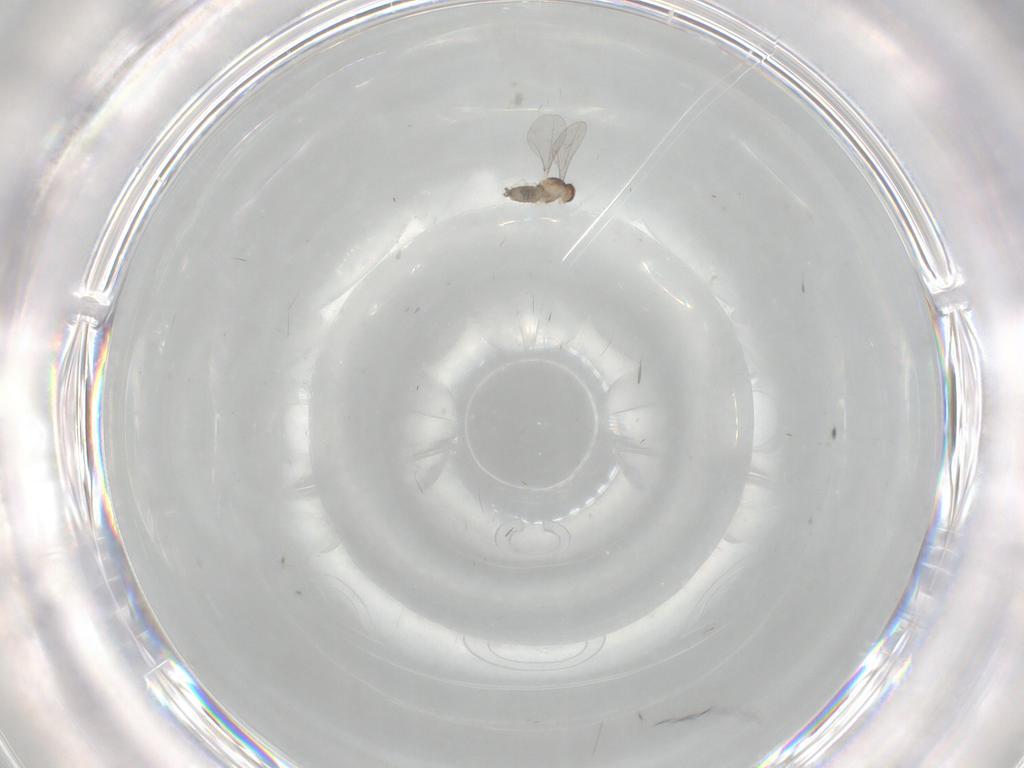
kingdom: Animalia
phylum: Arthropoda
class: Insecta
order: Diptera
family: Cecidomyiidae
